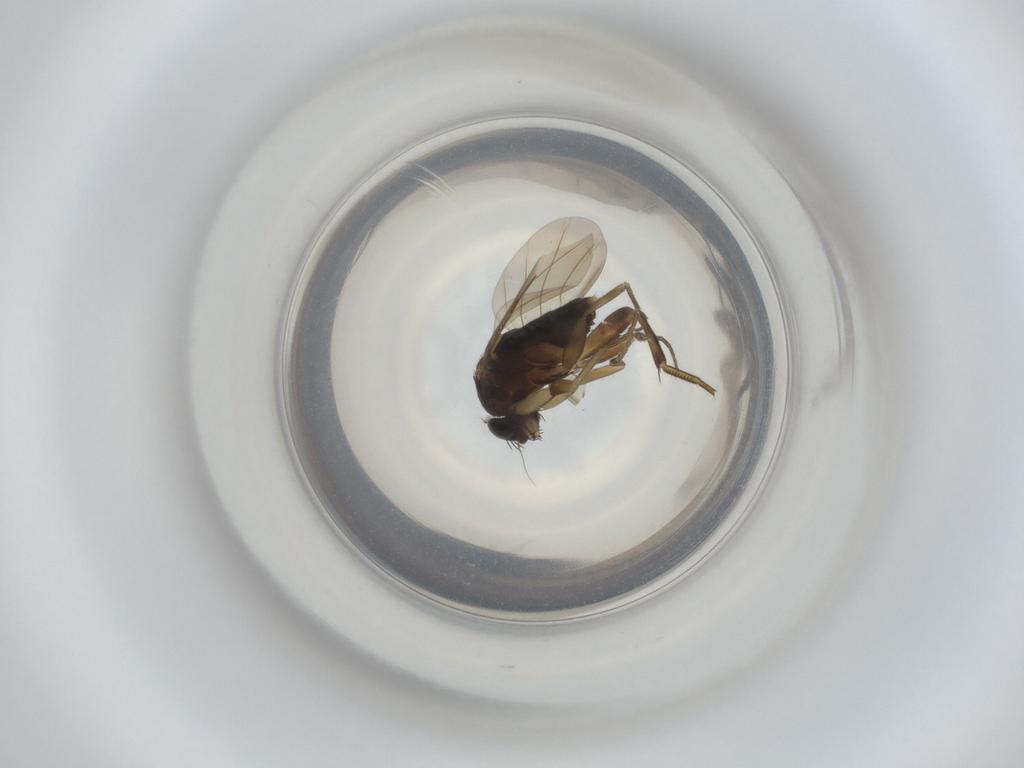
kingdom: Animalia
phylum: Arthropoda
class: Insecta
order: Diptera
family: Phoridae
